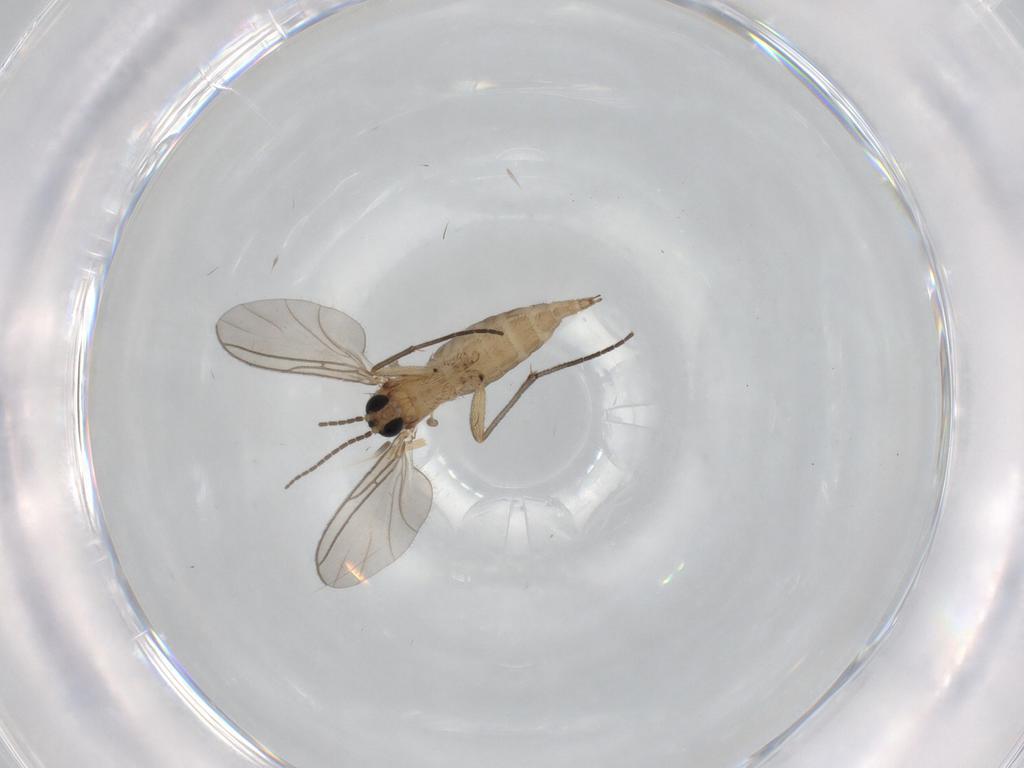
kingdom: Animalia
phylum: Arthropoda
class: Insecta
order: Diptera
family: Sciaridae
